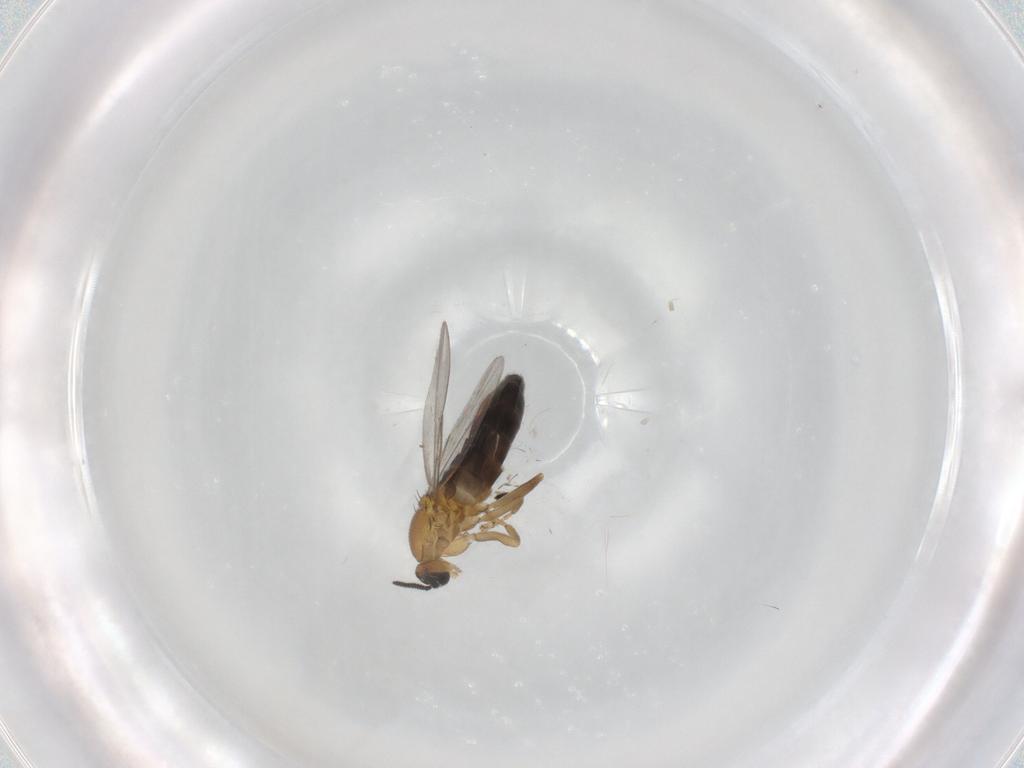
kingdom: Animalia
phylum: Arthropoda
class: Insecta
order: Diptera
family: Scatopsidae
